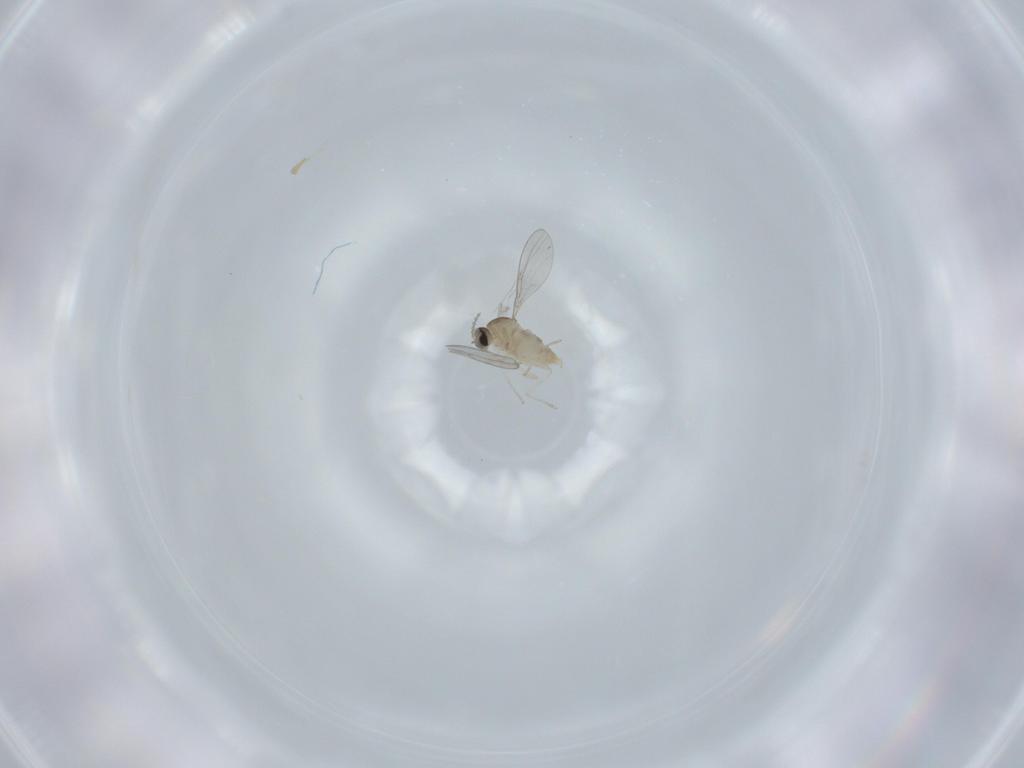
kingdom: Animalia
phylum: Arthropoda
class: Insecta
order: Diptera
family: Cecidomyiidae
